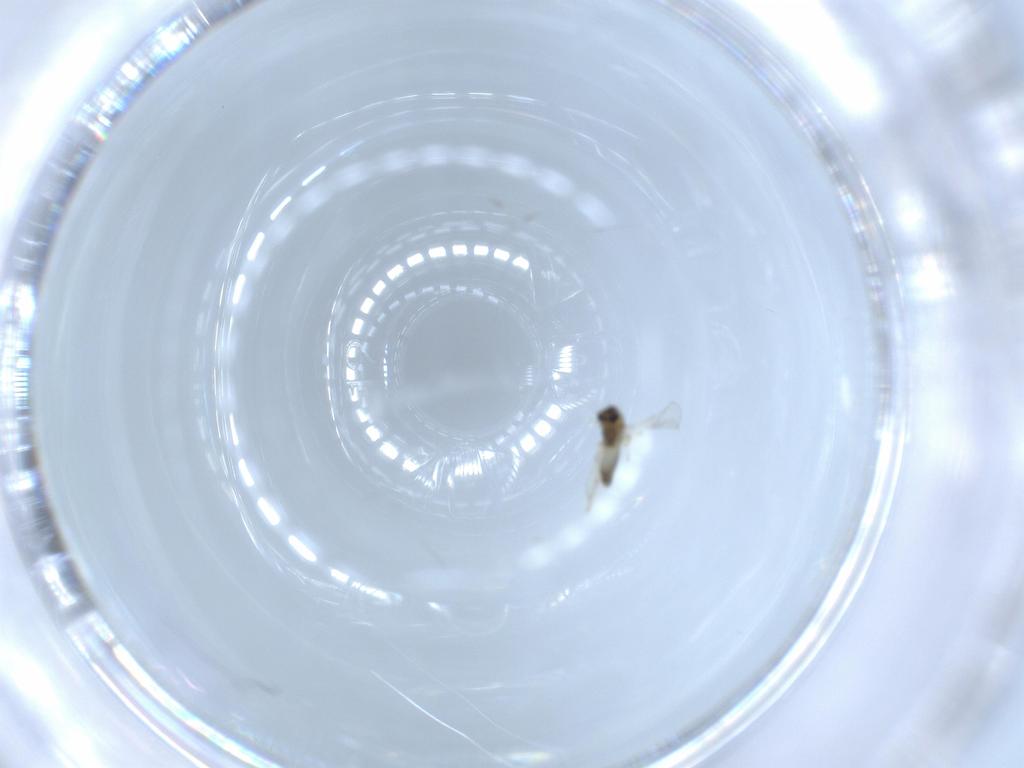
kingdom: Animalia
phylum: Arthropoda
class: Insecta
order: Diptera
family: Chironomidae
